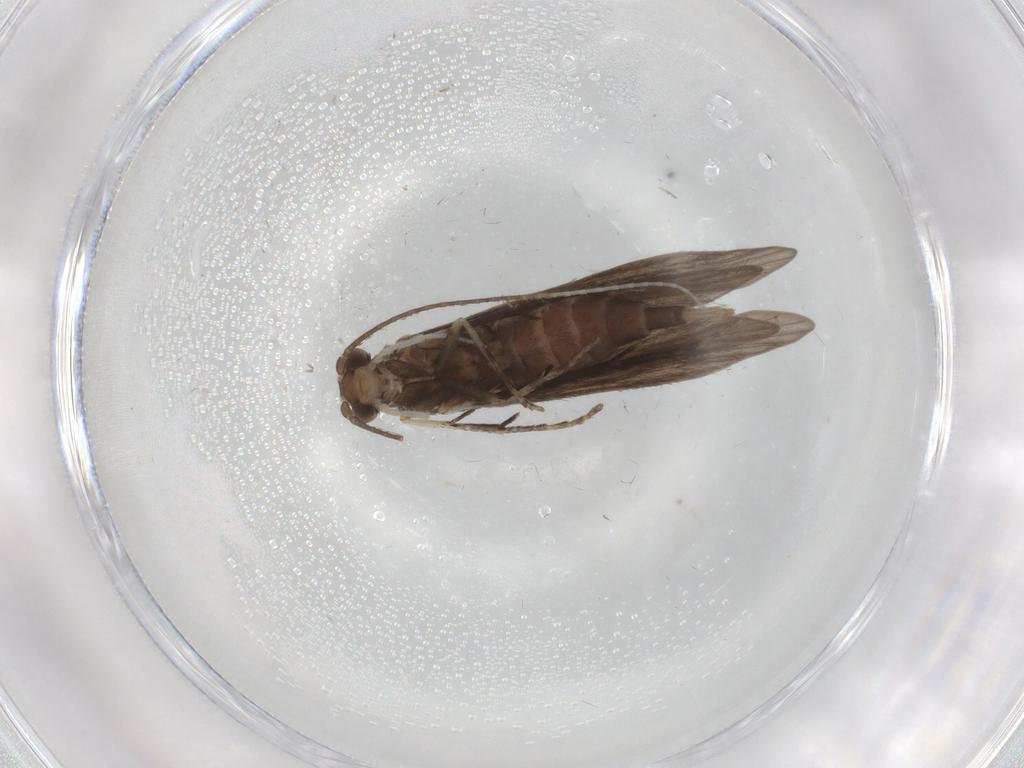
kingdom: Animalia
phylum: Arthropoda
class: Insecta
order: Trichoptera
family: Xiphocentronidae
